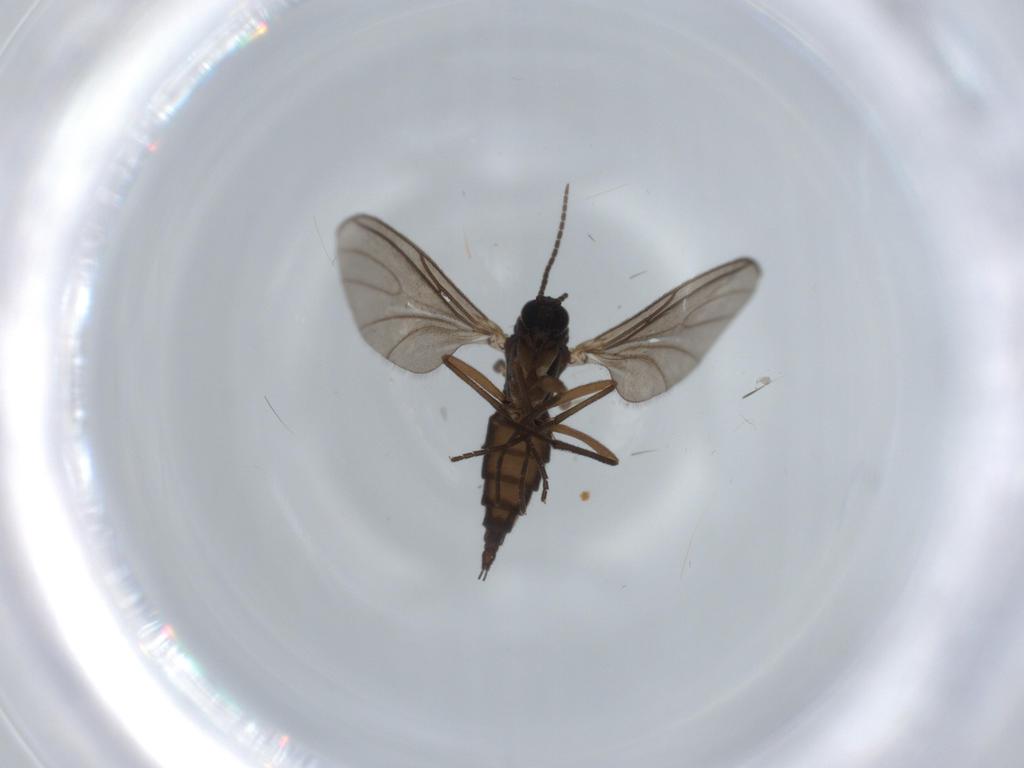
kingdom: Animalia
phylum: Arthropoda
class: Insecta
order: Diptera
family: Sciaridae
